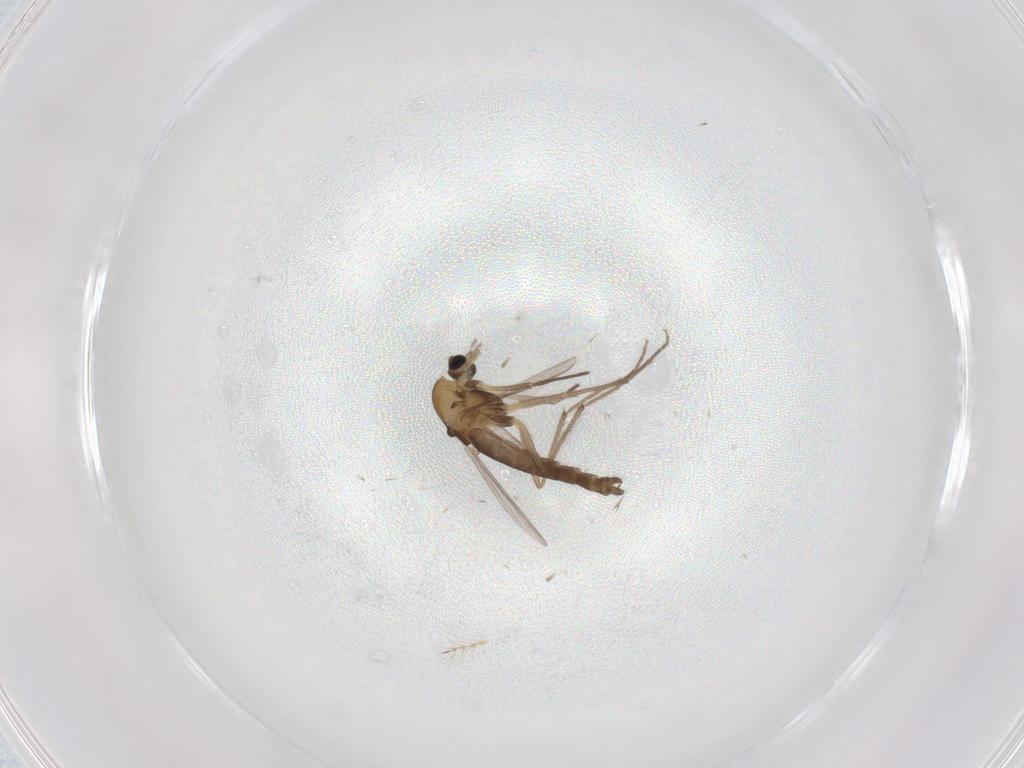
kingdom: Animalia
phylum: Arthropoda
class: Insecta
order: Diptera
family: Chironomidae
